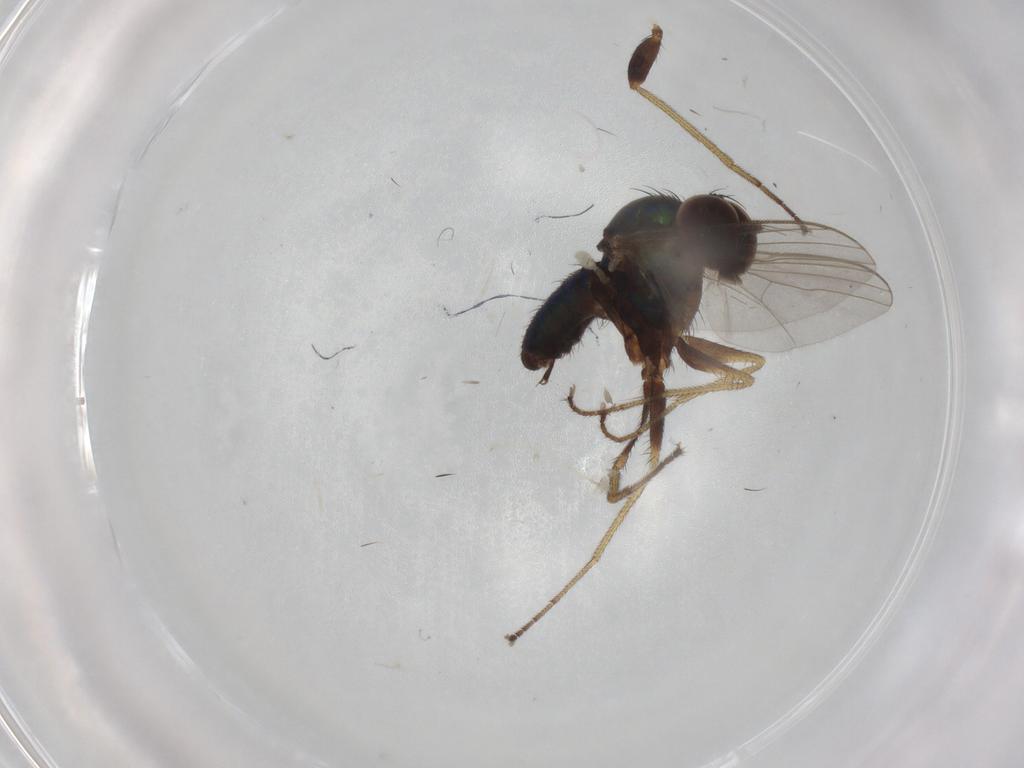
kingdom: Animalia
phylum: Arthropoda
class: Insecta
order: Diptera
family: Dolichopodidae
